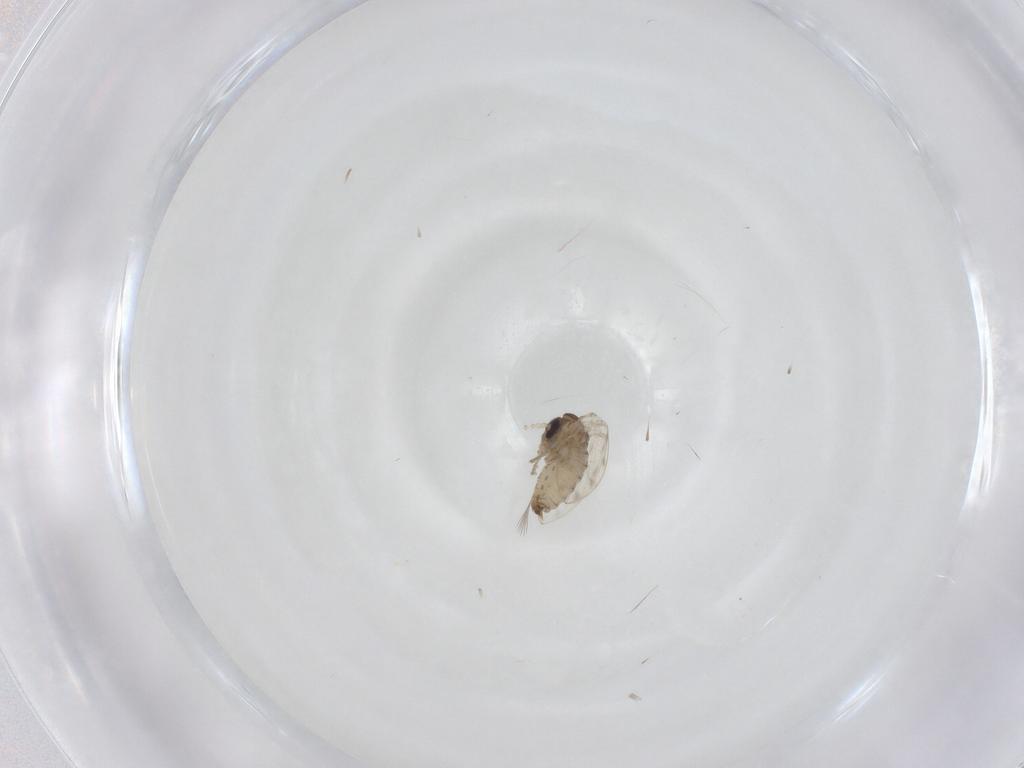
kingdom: Animalia
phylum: Arthropoda
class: Insecta
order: Diptera
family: Psychodidae
